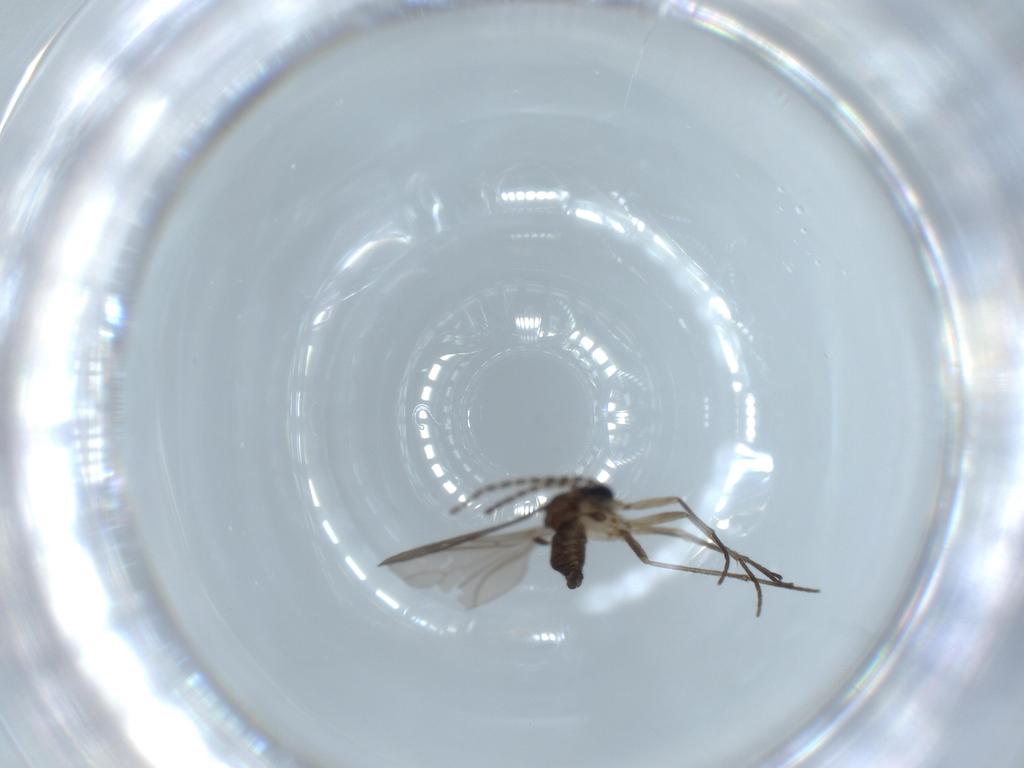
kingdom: Animalia
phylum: Arthropoda
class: Insecta
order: Diptera
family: Sciaridae
